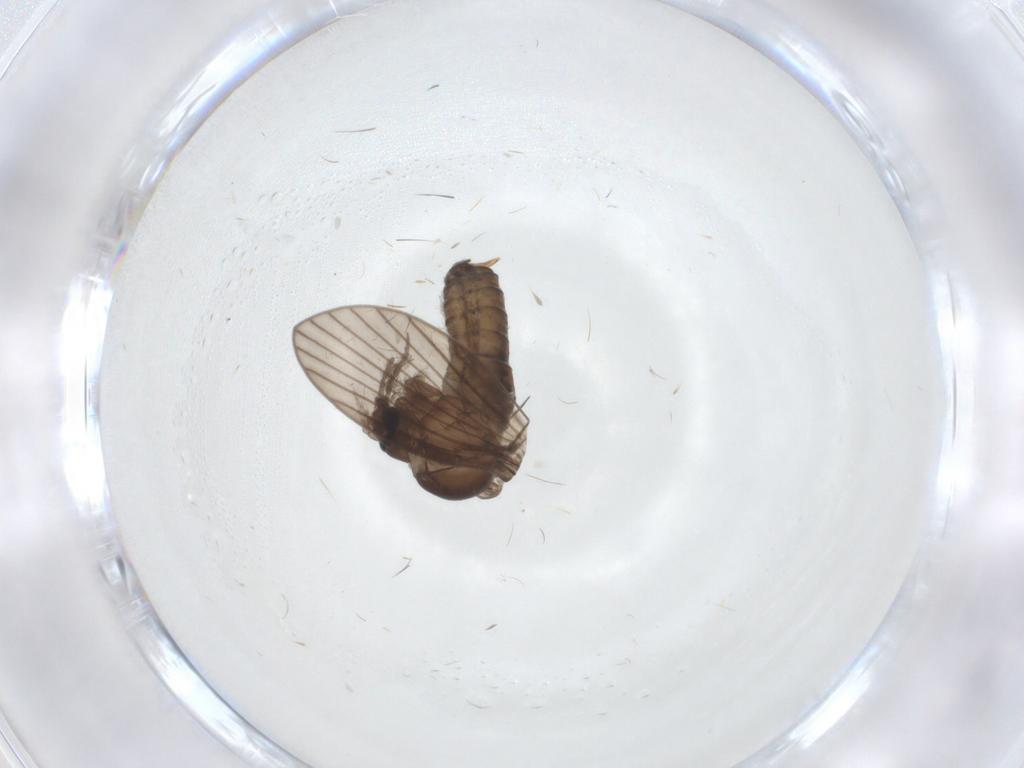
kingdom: Animalia
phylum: Arthropoda
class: Insecta
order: Diptera
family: Psychodidae
